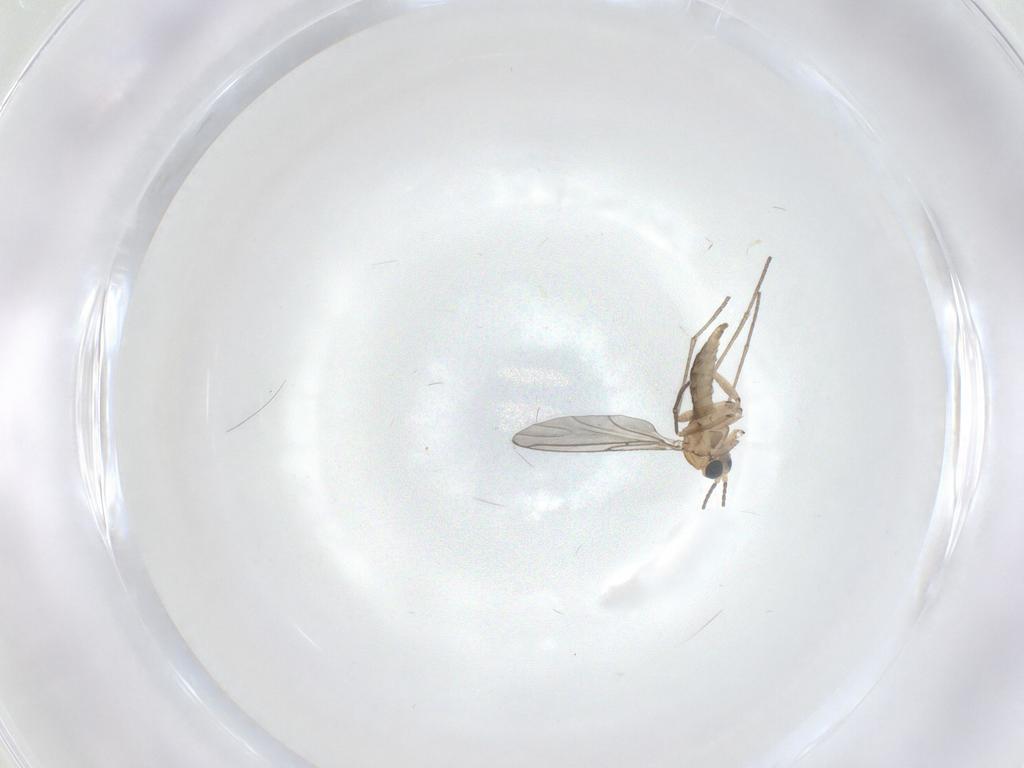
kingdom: Animalia
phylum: Arthropoda
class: Insecta
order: Diptera
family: Sciaridae
